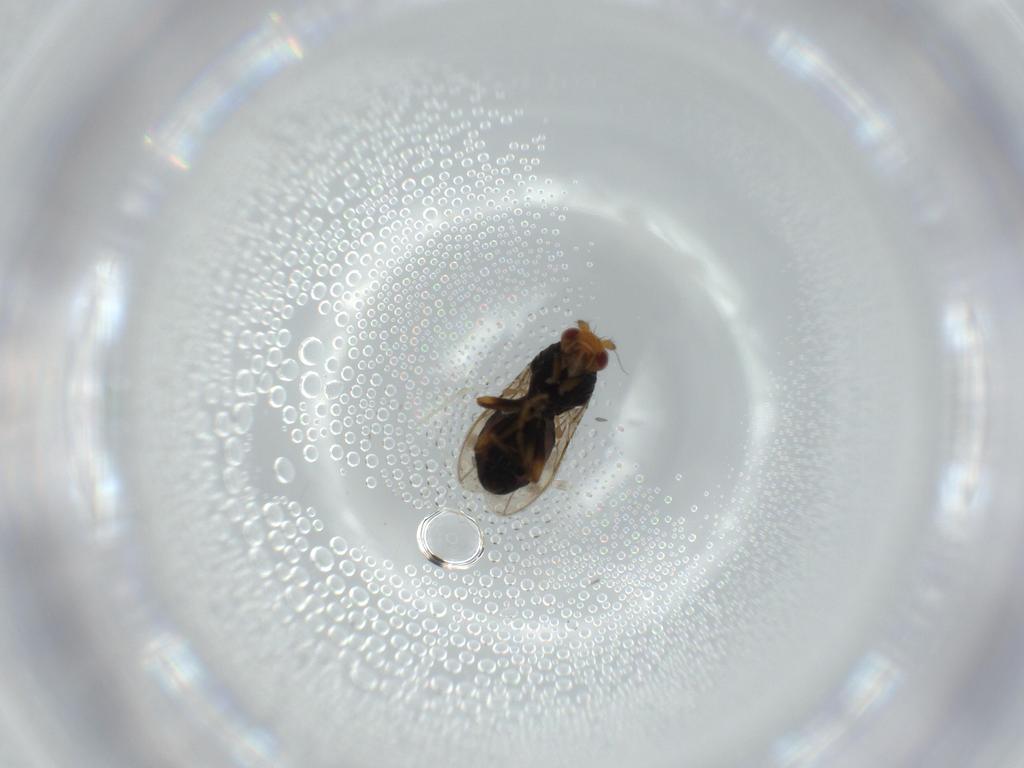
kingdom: Animalia
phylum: Arthropoda
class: Insecta
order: Diptera
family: Sphaeroceridae
